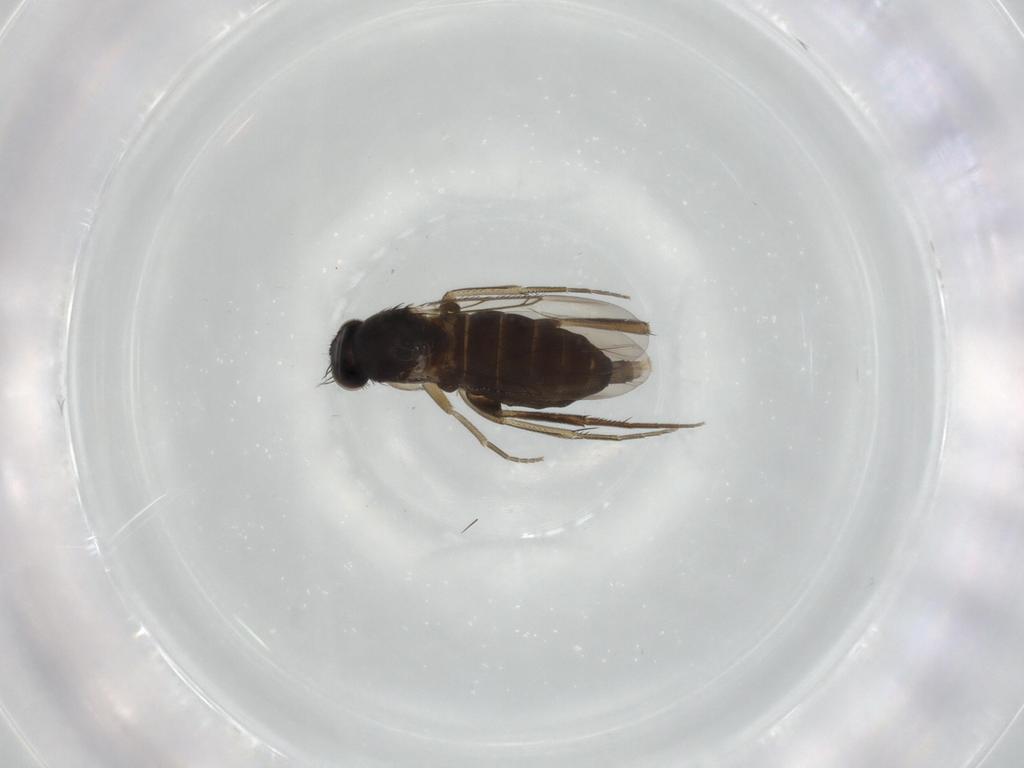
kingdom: Animalia
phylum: Arthropoda
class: Insecta
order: Diptera
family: Phoridae
